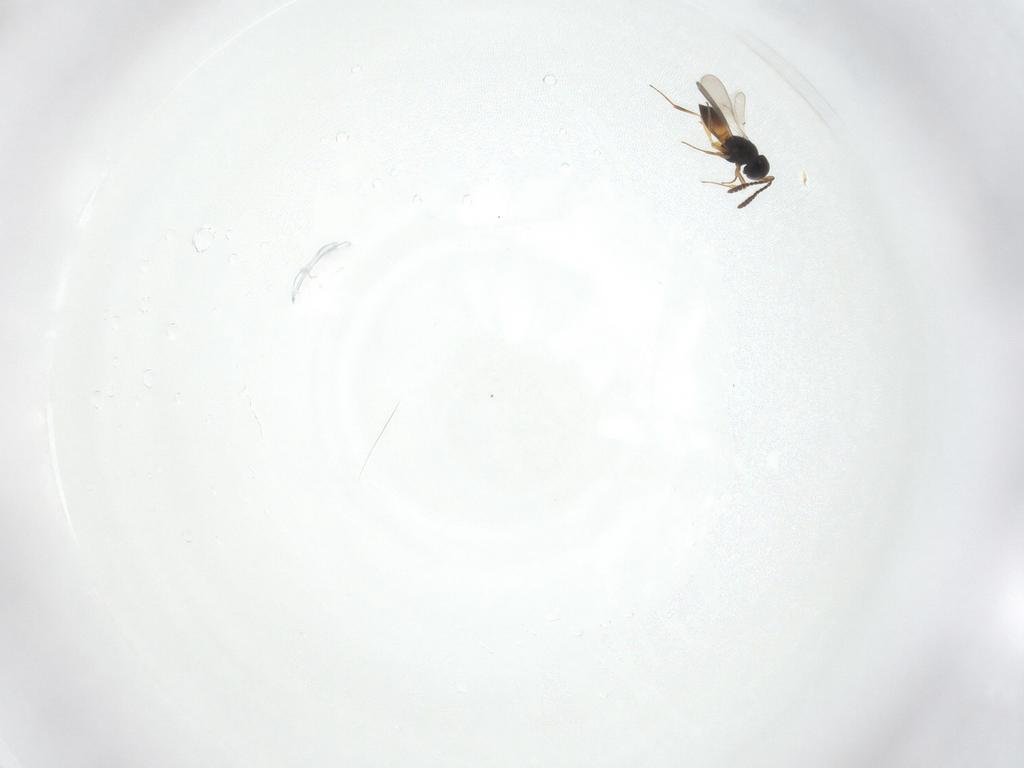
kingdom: Animalia
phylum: Arthropoda
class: Insecta
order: Hymenoptera
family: Scelionidae
